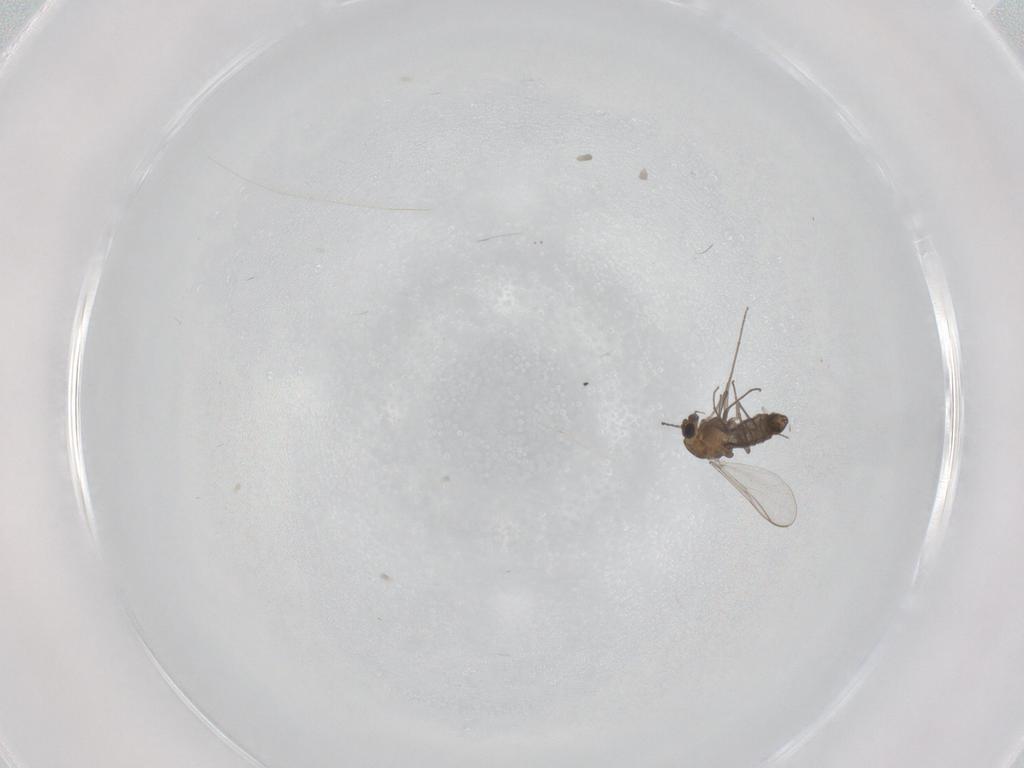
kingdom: Animalia
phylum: Arthropoda
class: Insecta
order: Diptera
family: Chironomidae
